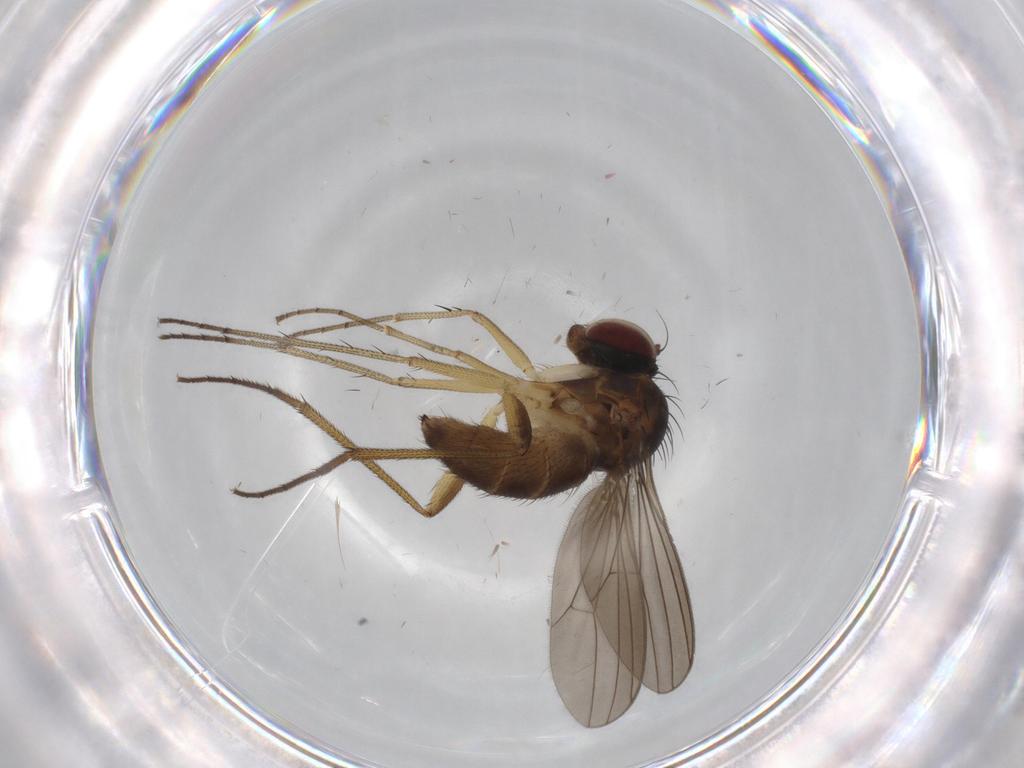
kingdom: Animalia
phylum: Arthropoda
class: Insecta
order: Diptera
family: Dolichopodidae
